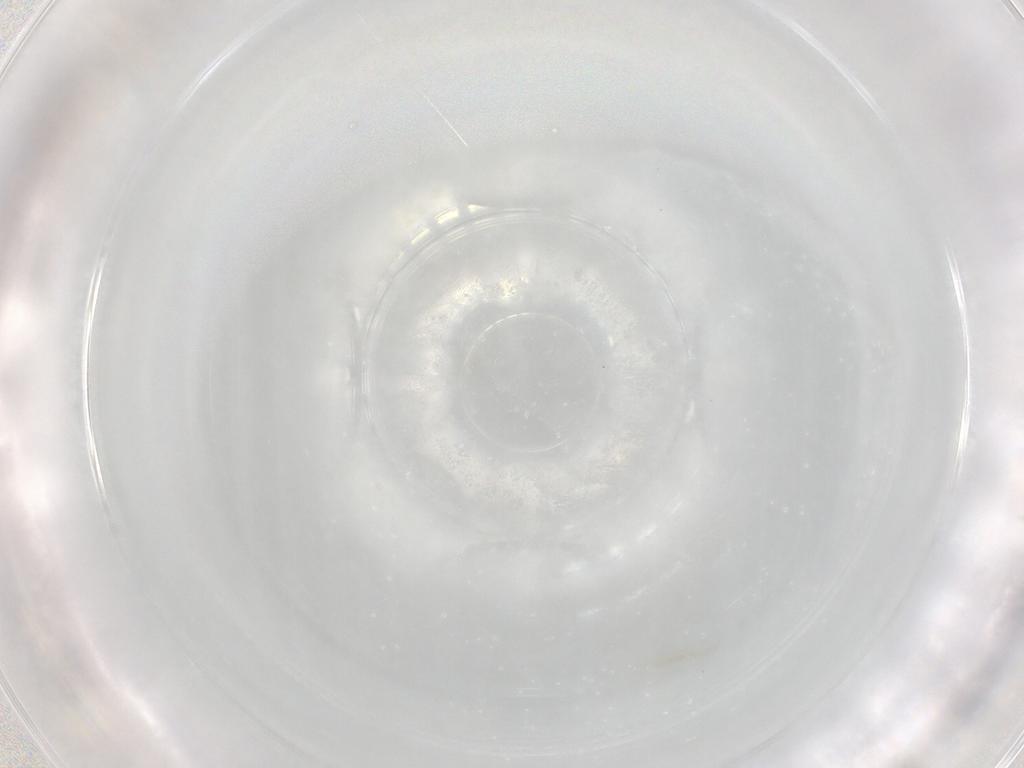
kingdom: Animalia
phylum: Arthropoda
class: Insecta
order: Diptera
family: Chironomidae
